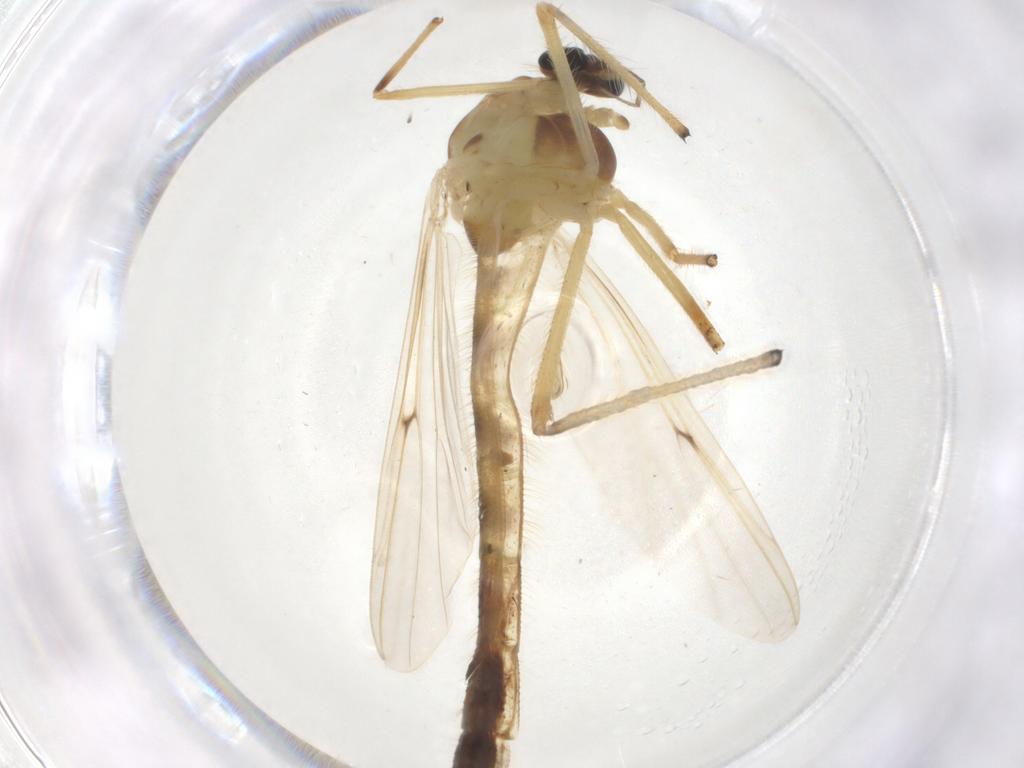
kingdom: Animalia
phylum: Arthropoda
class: Insecta
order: Diptera
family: Chironomidae
